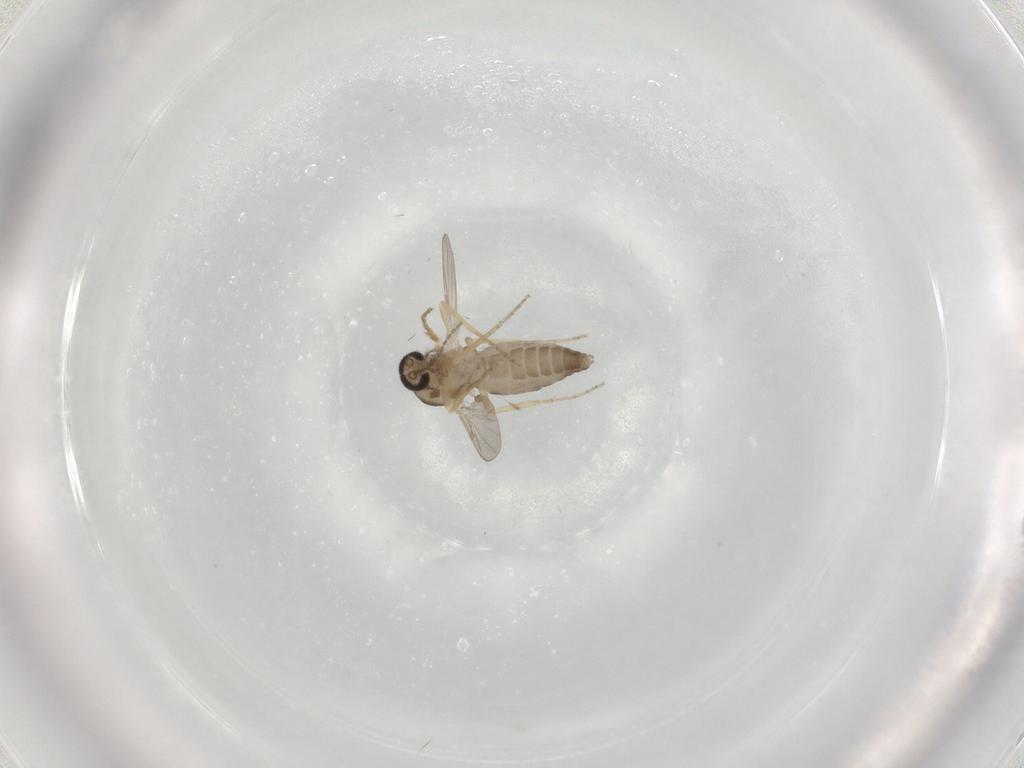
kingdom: Animalia
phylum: Arthropoda
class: Insecta
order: Diptera
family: Ceratopogonidae
